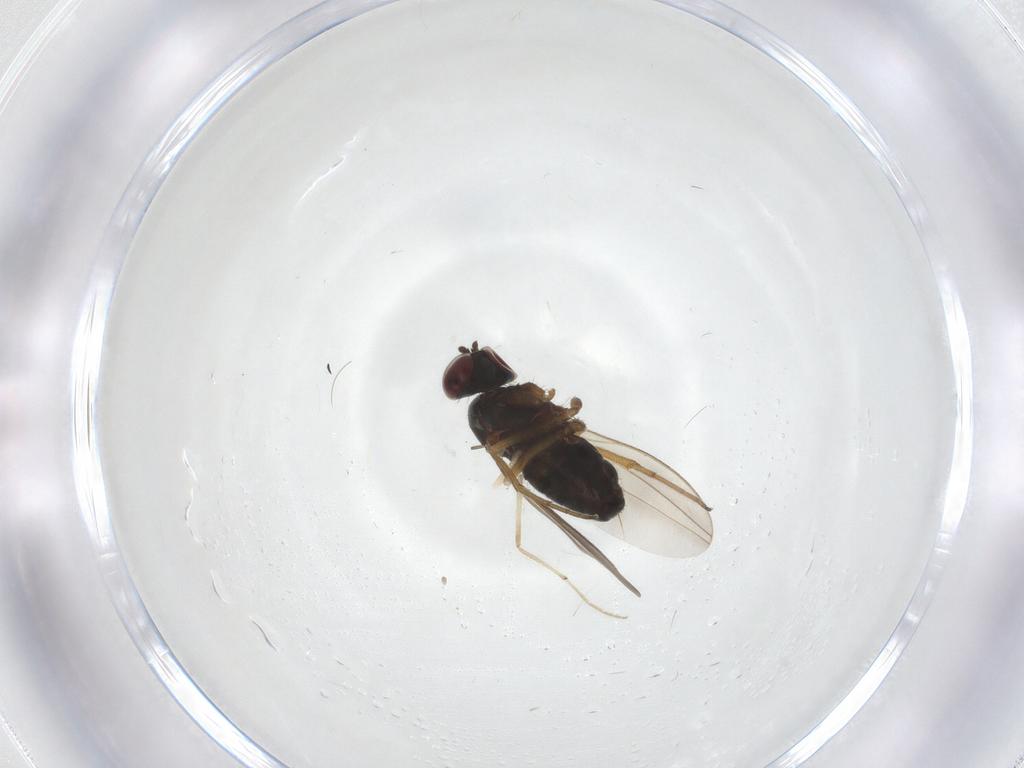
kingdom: Animalia
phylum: Arthropoda
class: Insecta
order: Diptera
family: Dolichopodidae
